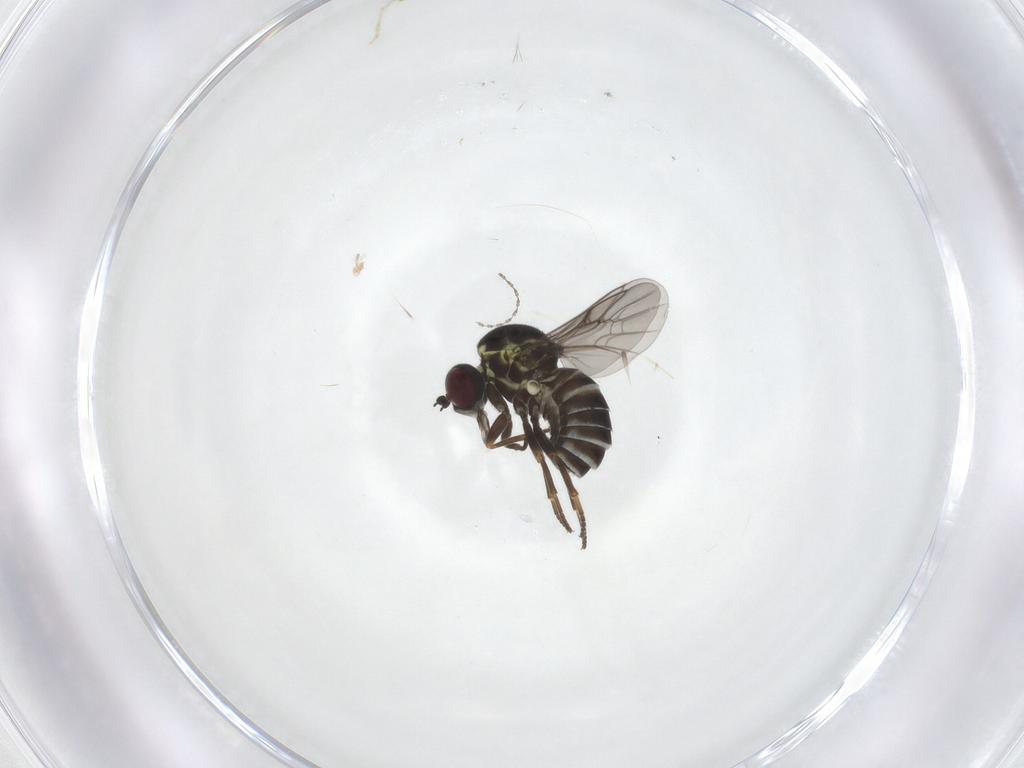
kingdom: Animalia
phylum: Arthropoda
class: Insecta
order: Diptera
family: Bombyliidae
